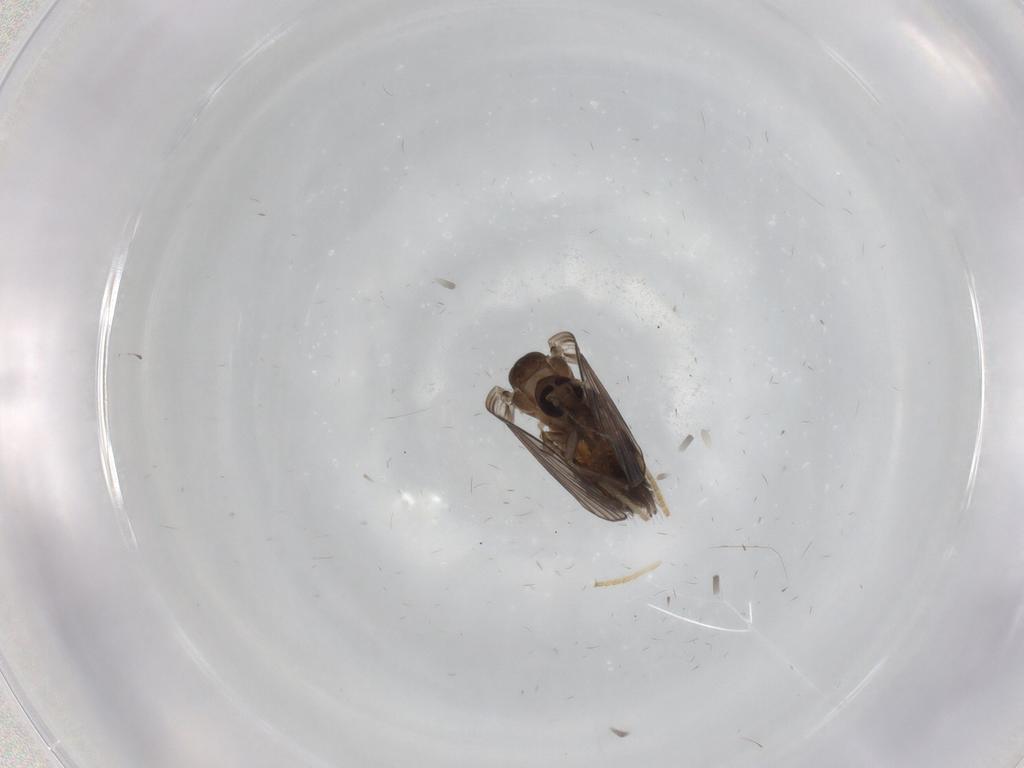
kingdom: Animalia
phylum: Arthropoda
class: Insecta
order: Diptera
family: Psychodidae
